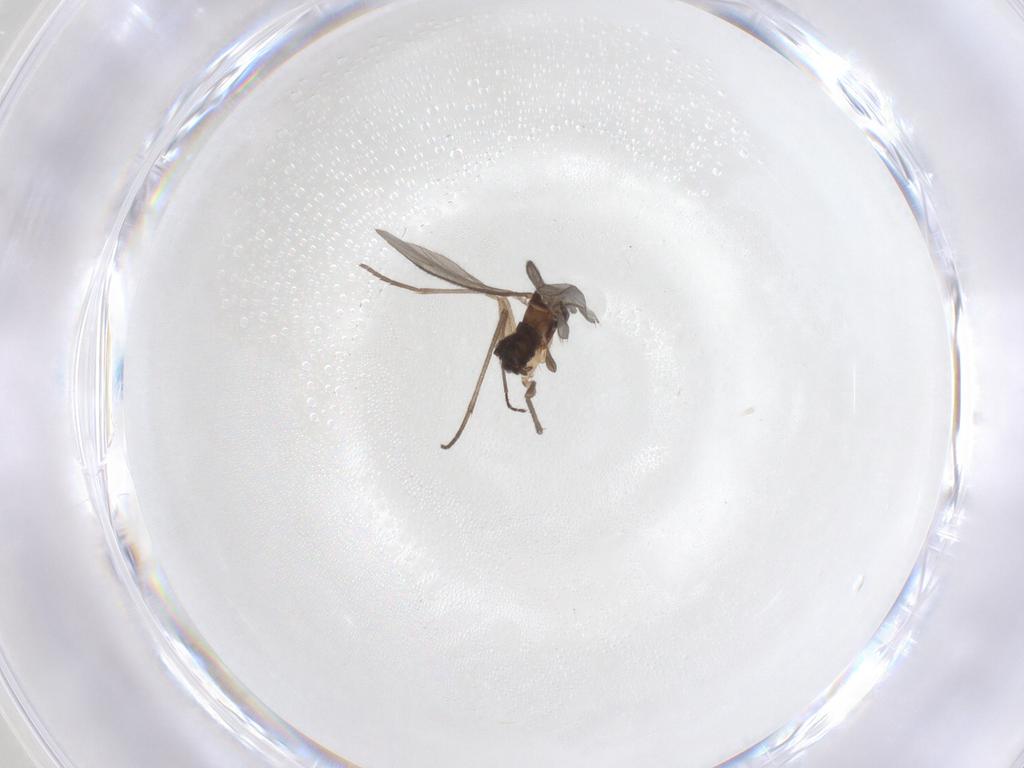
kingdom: Animalia
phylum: Arthropoda
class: Insecta
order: Diptera
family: Sciaridae
